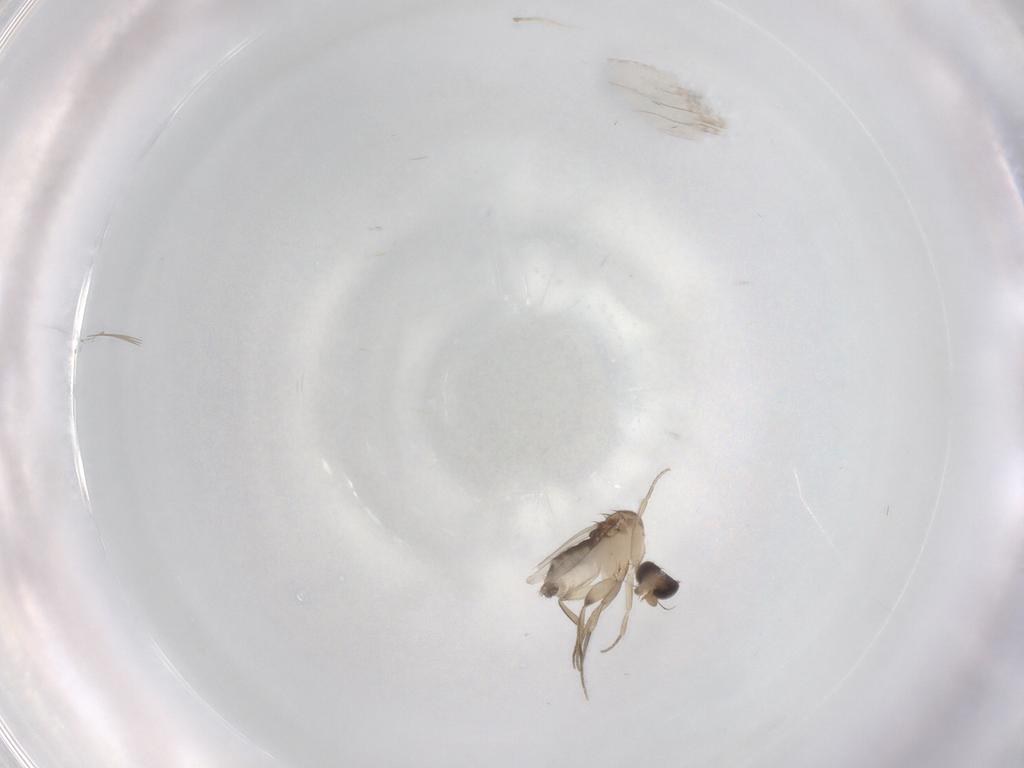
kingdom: Animalia
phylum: Arthropoda
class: Insecta
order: Diptera
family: Phoridae
